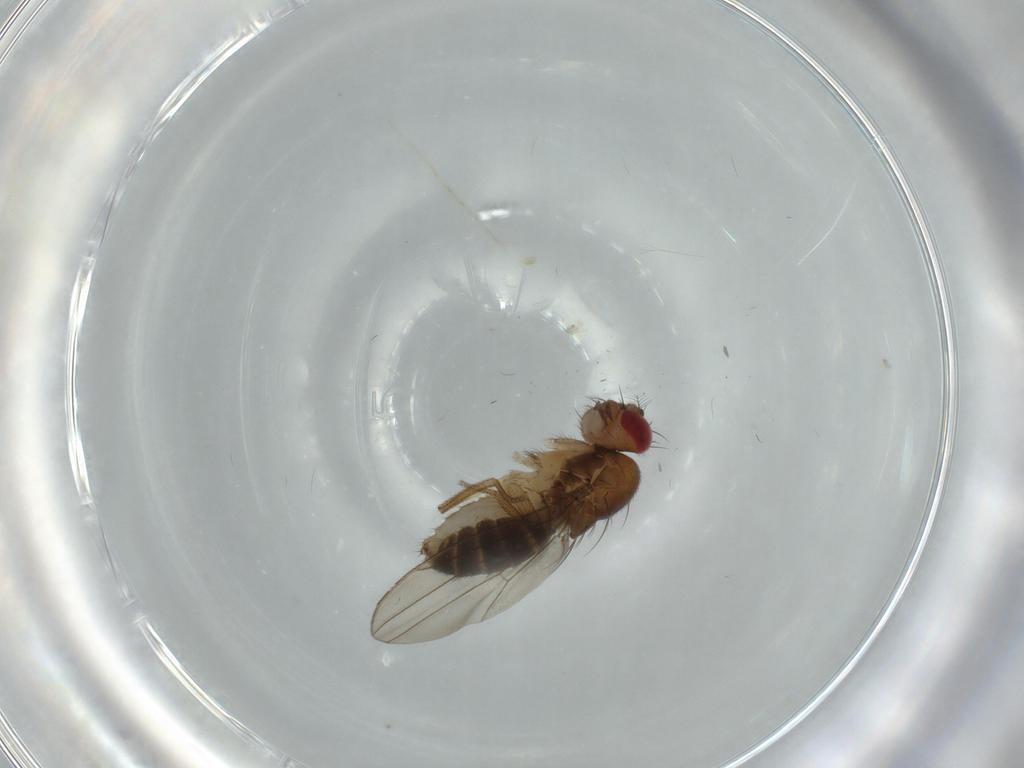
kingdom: Animalia
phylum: Arthropoda
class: Insecta
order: Diptera
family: Drosophilidae
